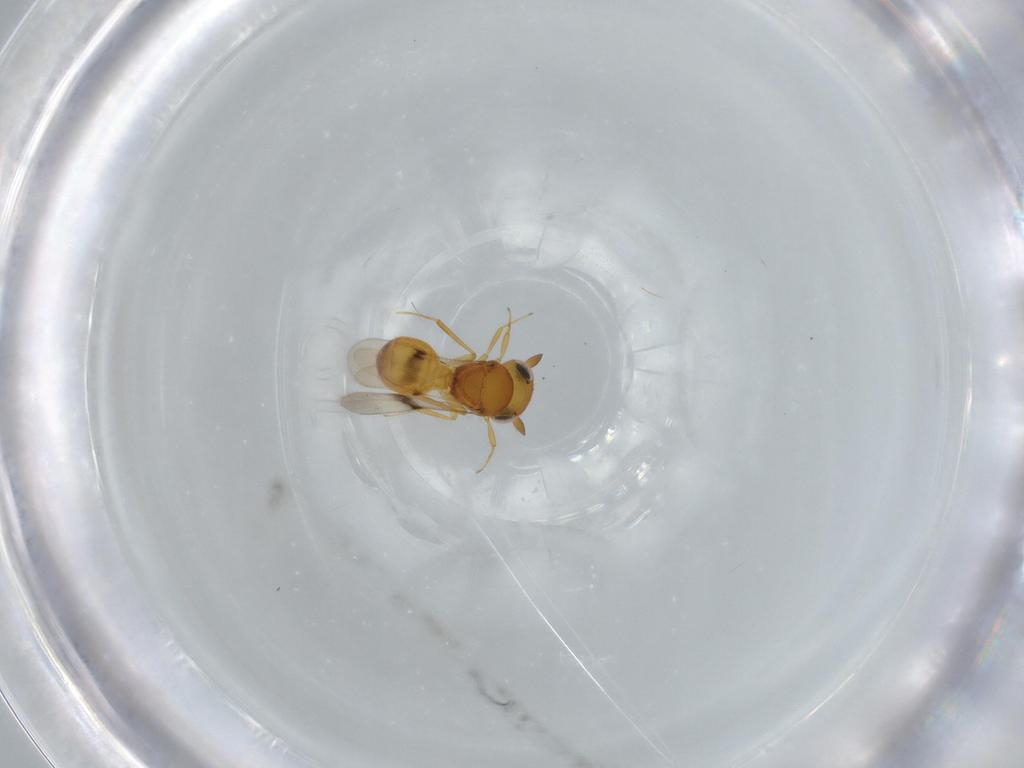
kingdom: Animalia
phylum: Arthropoda
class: Insecta
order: Hymenoptera
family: Scelionidae
